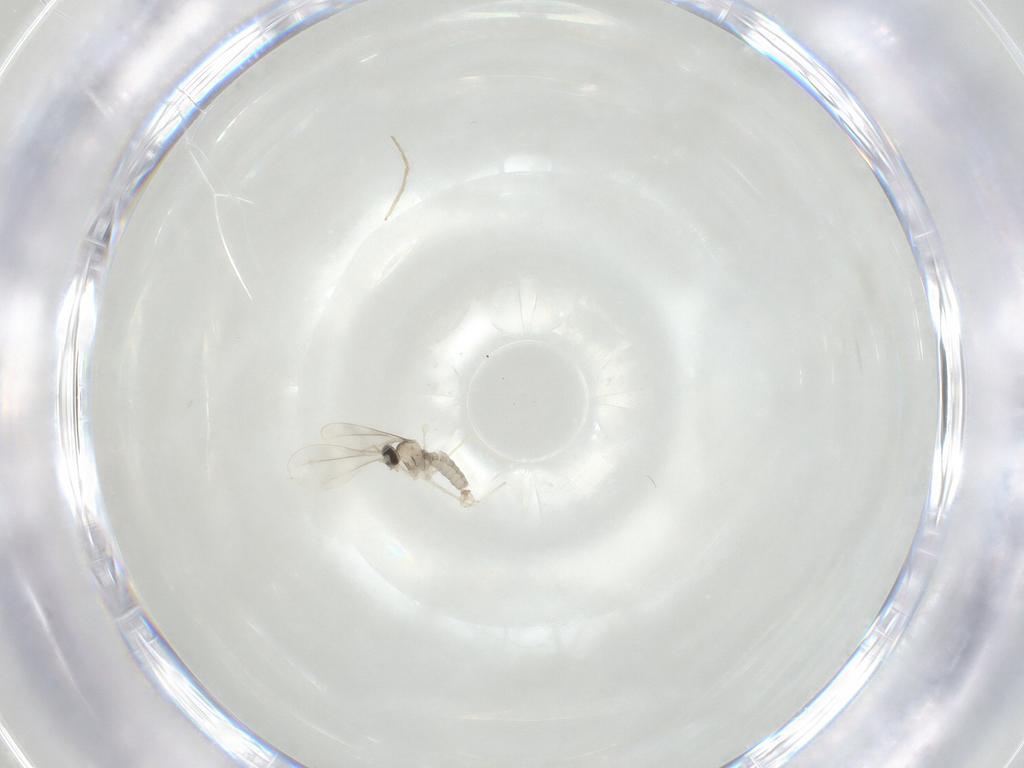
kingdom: Animalia
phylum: Arthropoda
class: Insecta
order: Diptera
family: Cecidomyiidae
